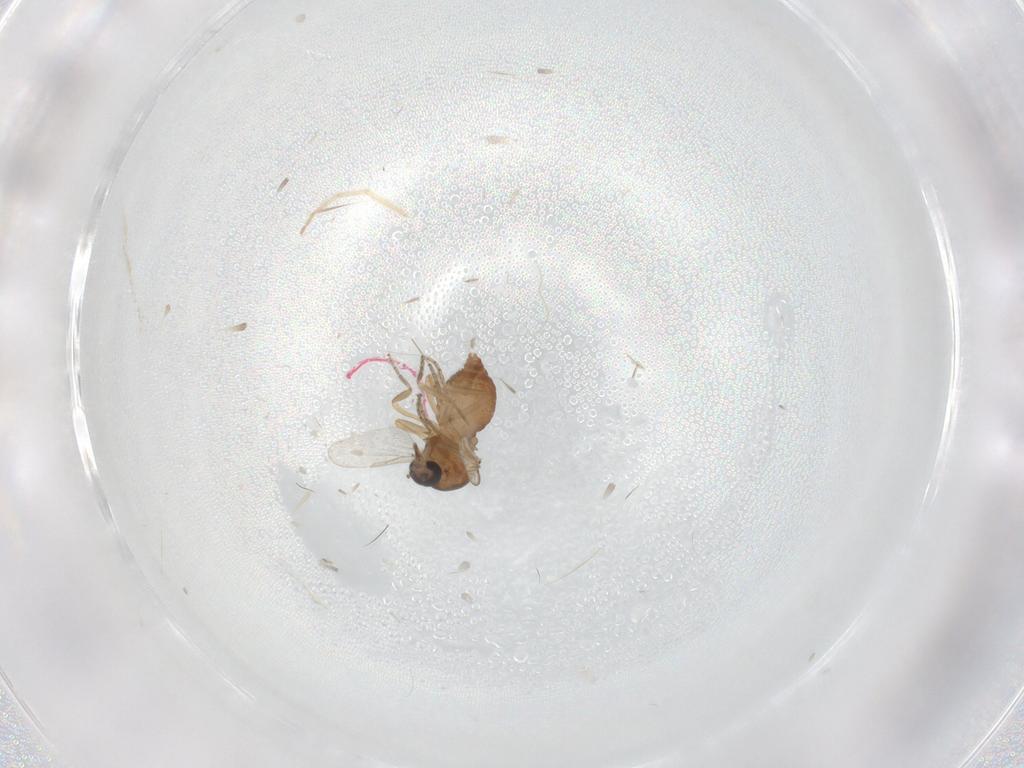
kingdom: Animalia
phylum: Arthropoda
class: Insecta
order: Diptera
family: Ceratopogonidae
